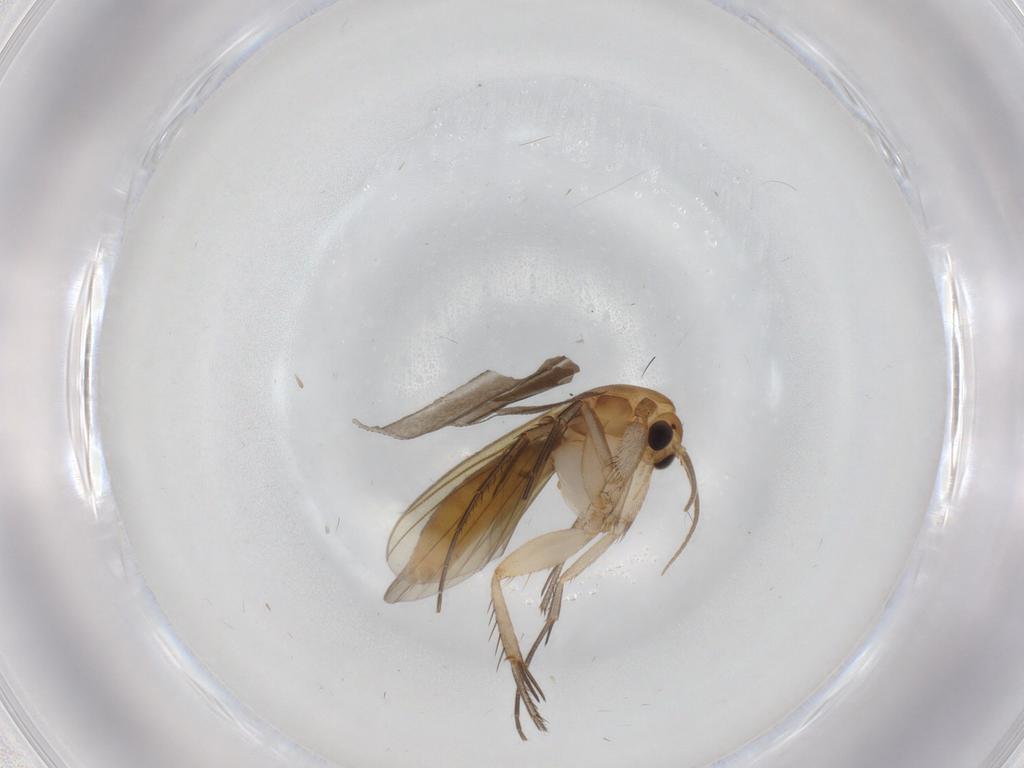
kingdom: Animalia
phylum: Arthropoda
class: Insecta
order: Diptera
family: Mycetophilidae
